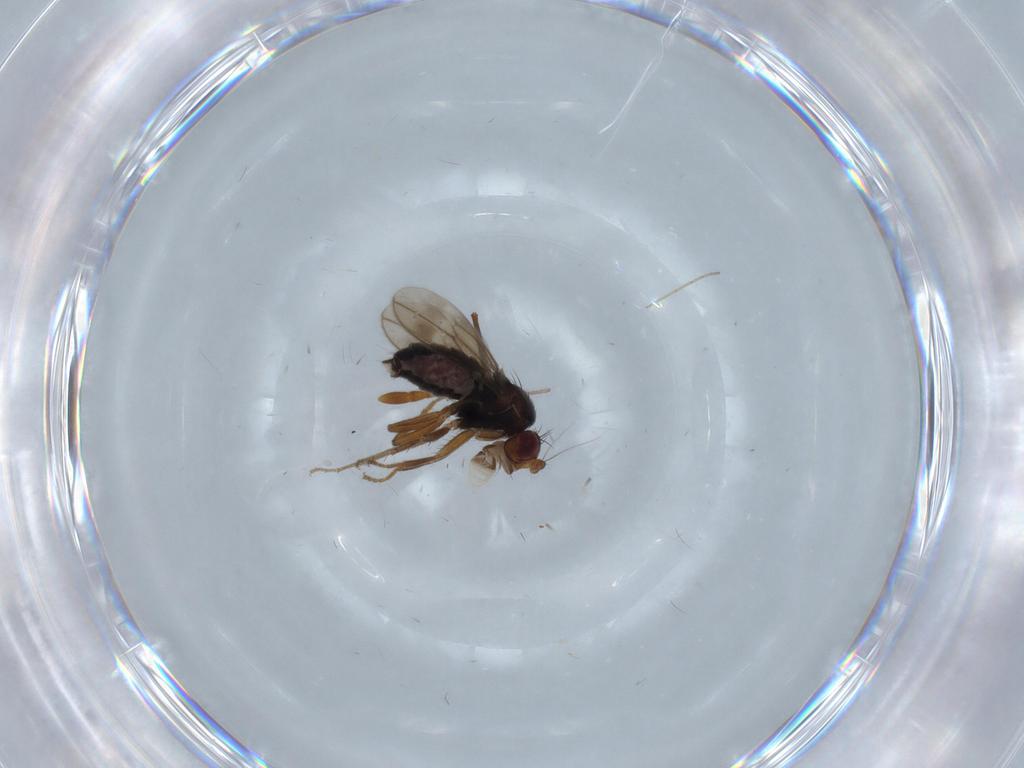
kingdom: Animalia
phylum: Arthropoda
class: Insecta
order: Diptera
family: Sphaeroceridae
